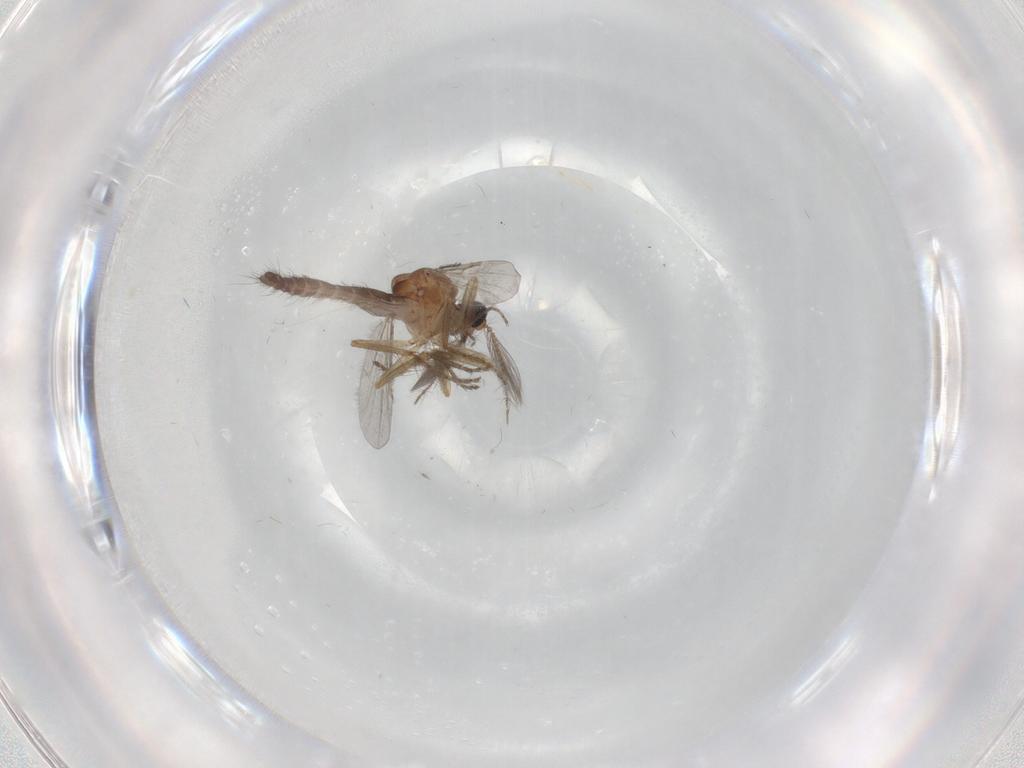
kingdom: Animalia
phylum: Arthropoda
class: Insecta
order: Diptera
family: Ceratopogonidae
